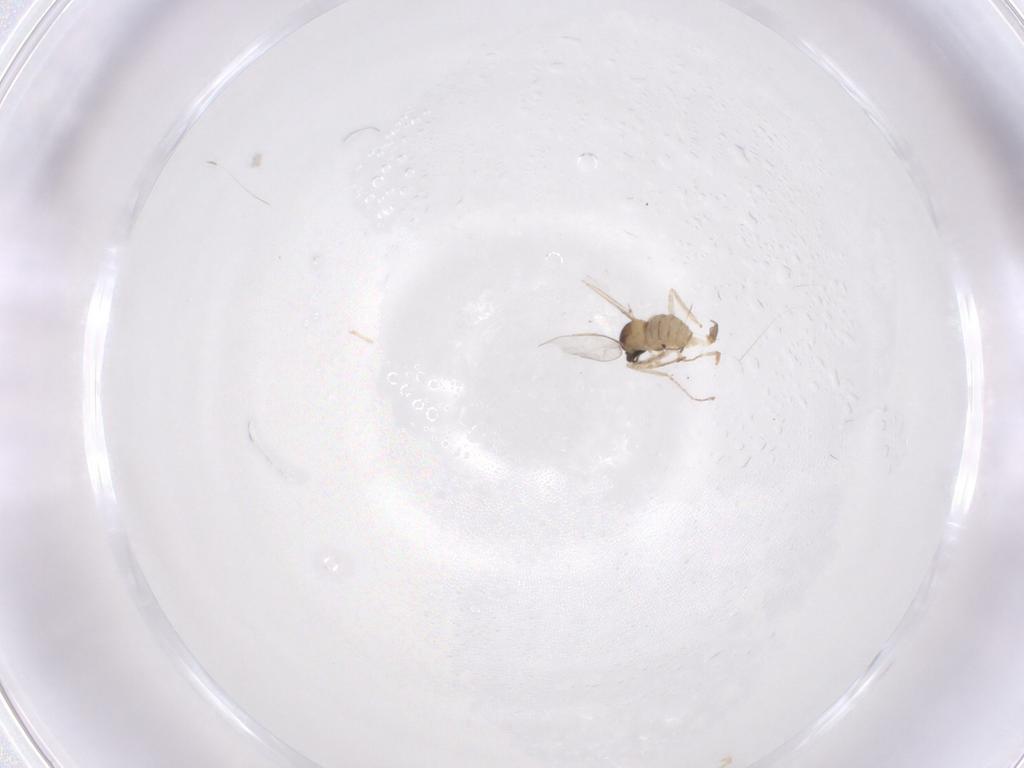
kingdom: Animalia
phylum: Arthropoda
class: Insecta
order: Diptera
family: Cecidomyiidae
